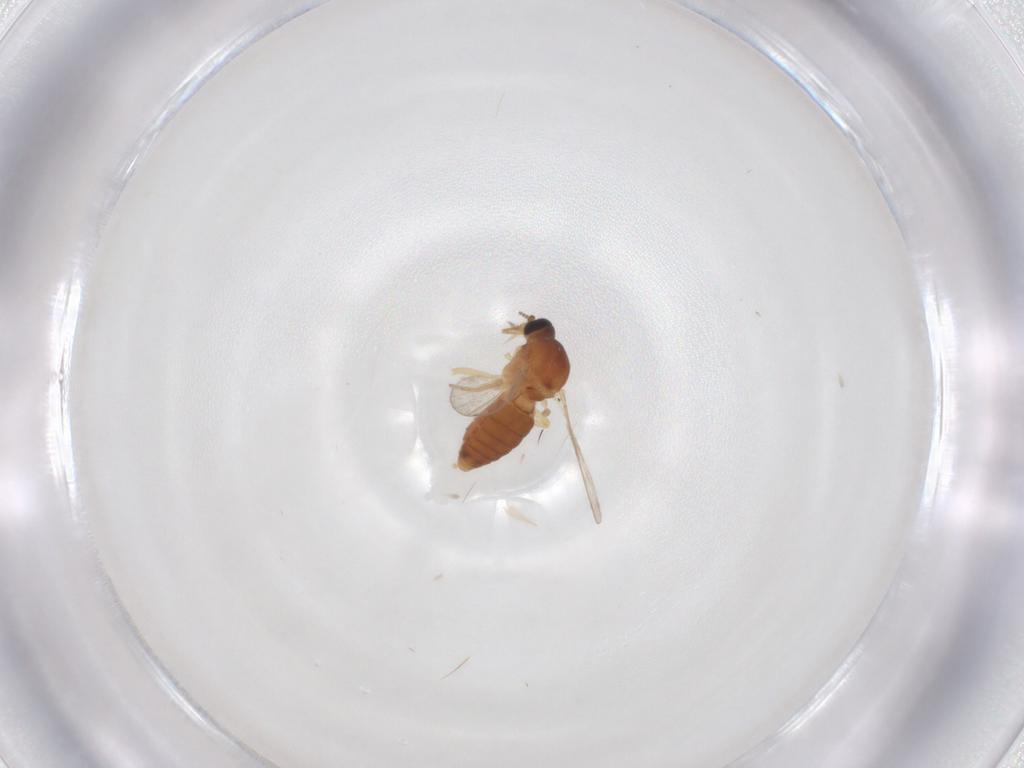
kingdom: Animalia
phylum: Arthropoda
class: Insecta
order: Diptera
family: Ceratopogonidae
